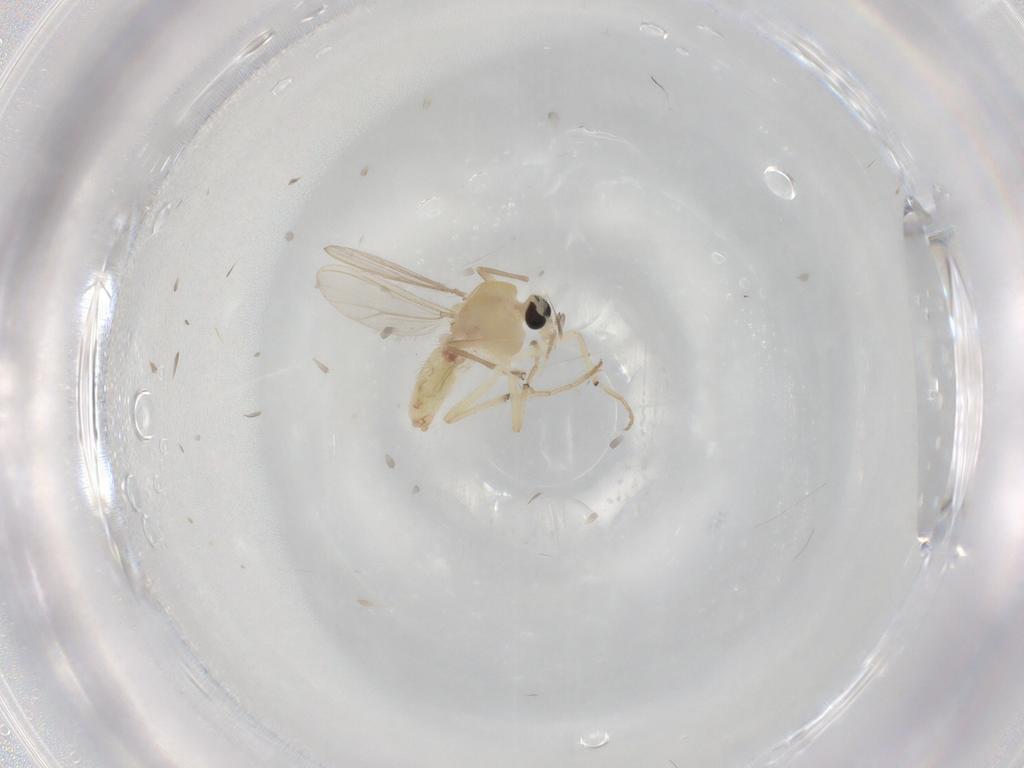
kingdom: Animalia
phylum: Arthropoda
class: Insecta
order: Diptera
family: Chironomidae
